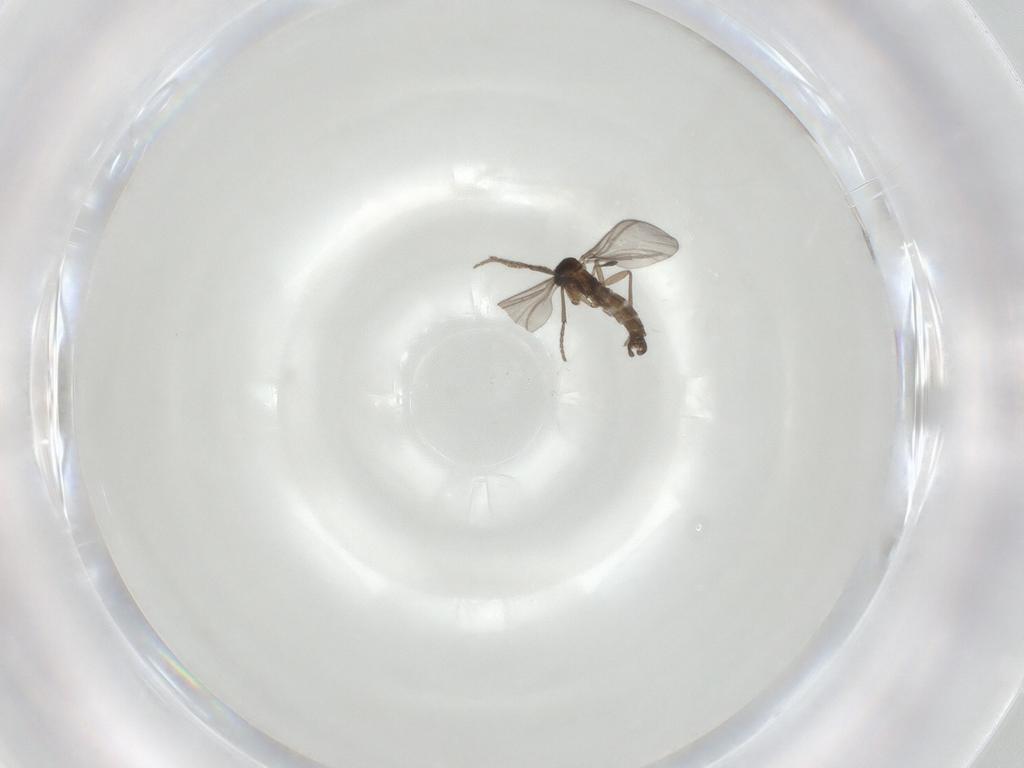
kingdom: Animalia
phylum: Arthropoda
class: Insecta
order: Diptera
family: Sciaridae
